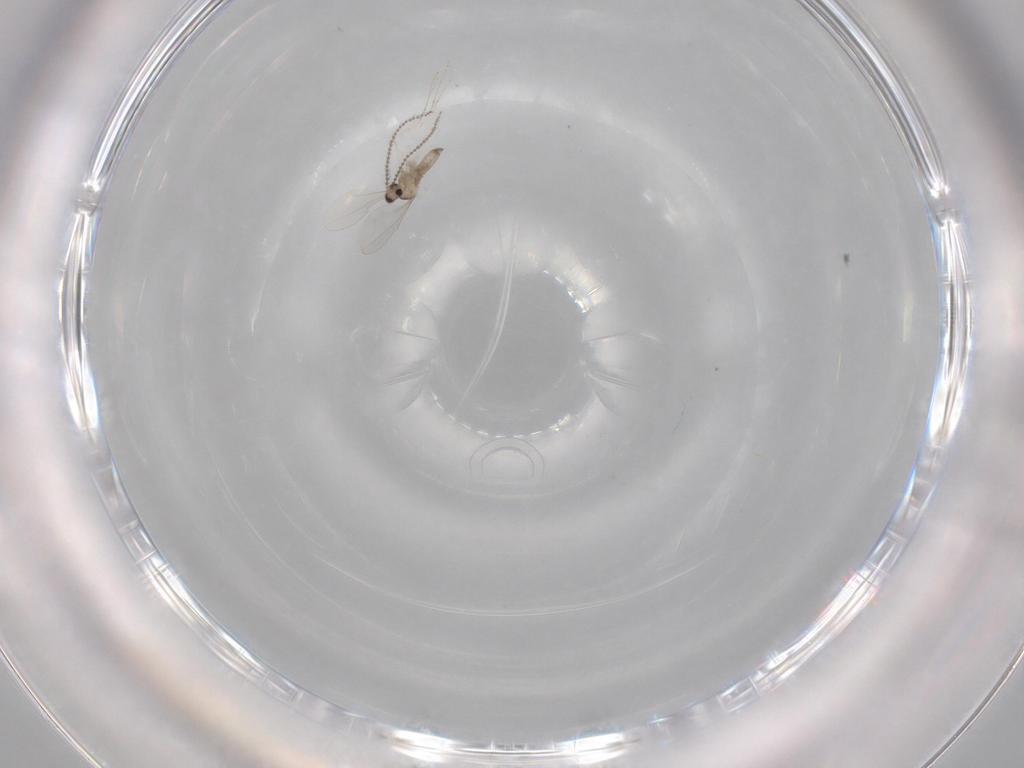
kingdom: Animalia
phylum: Arthropoda
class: Insecta
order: Diptera
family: Cecidomyiidae
